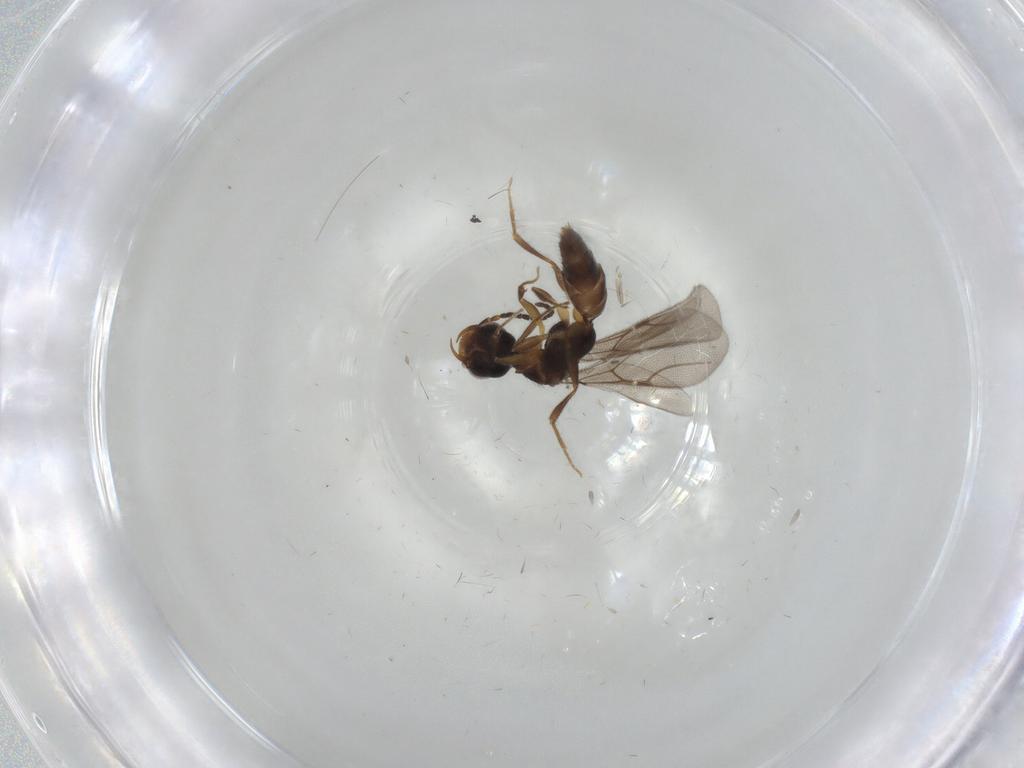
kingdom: Animalia
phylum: Arthropoda
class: Insecta
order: Hymenoptera
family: Bethylidae
